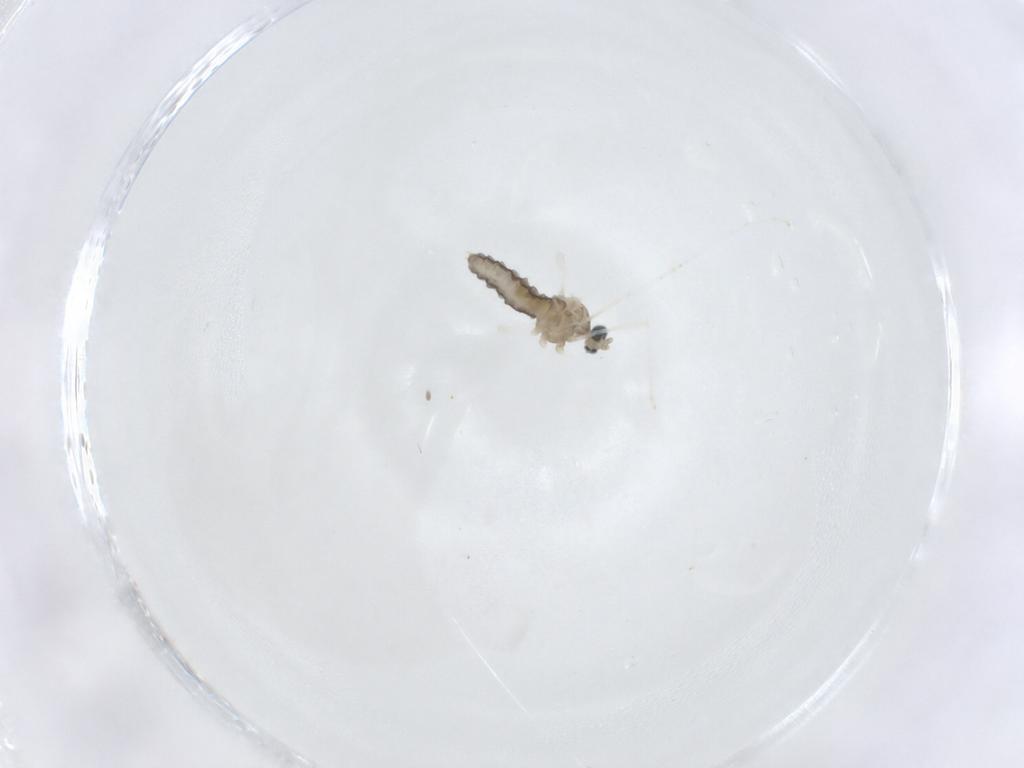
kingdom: Animalia
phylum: Arthropoda
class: Insecta
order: Diptera
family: Cecidomyiidae
